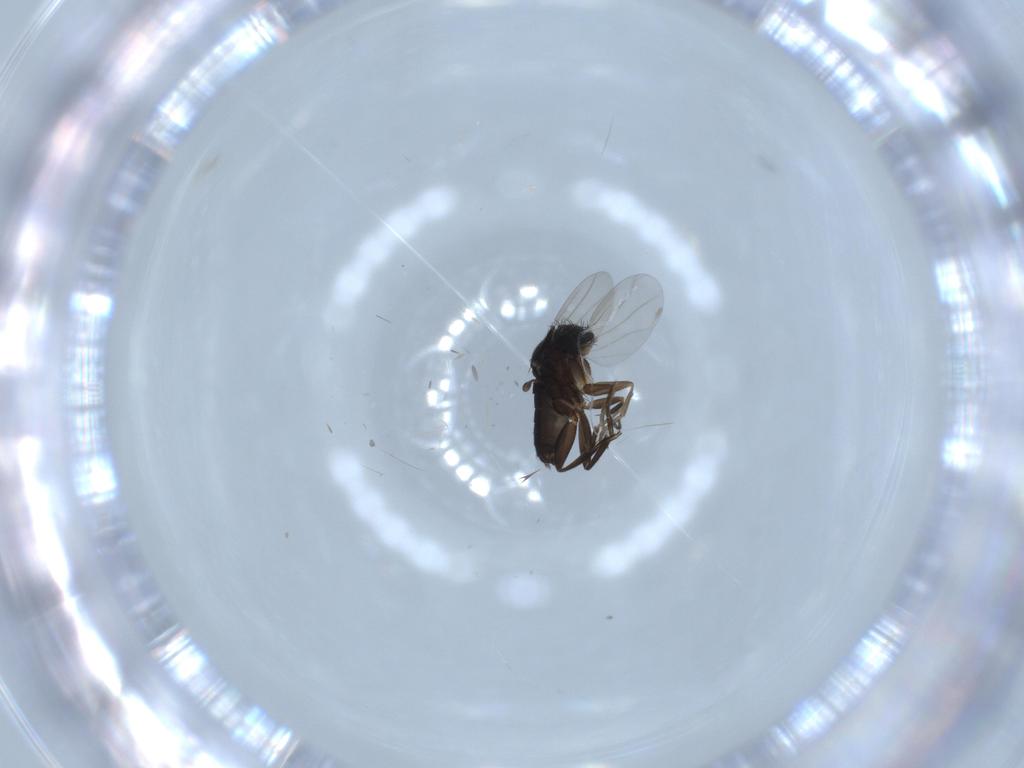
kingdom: Animalia
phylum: Arthropoda
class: Insecta
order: Diptera
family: Phoridae
